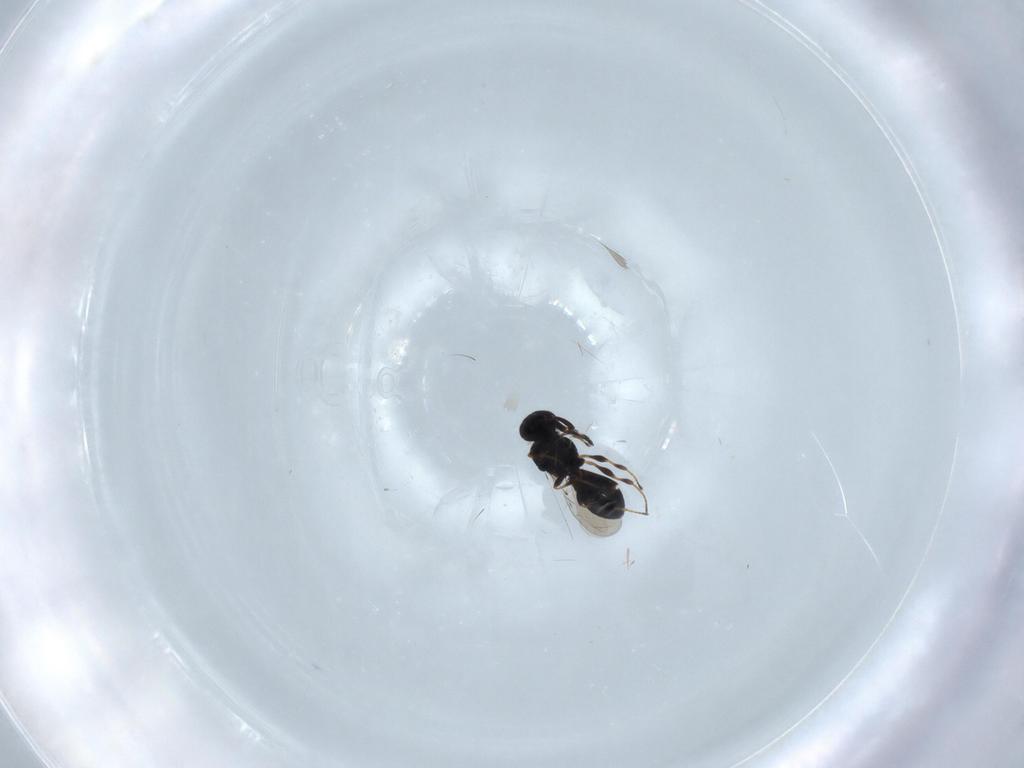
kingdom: Animalia
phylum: Arthropoda
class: Insecta
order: Hymenoptera
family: Platygastridae
